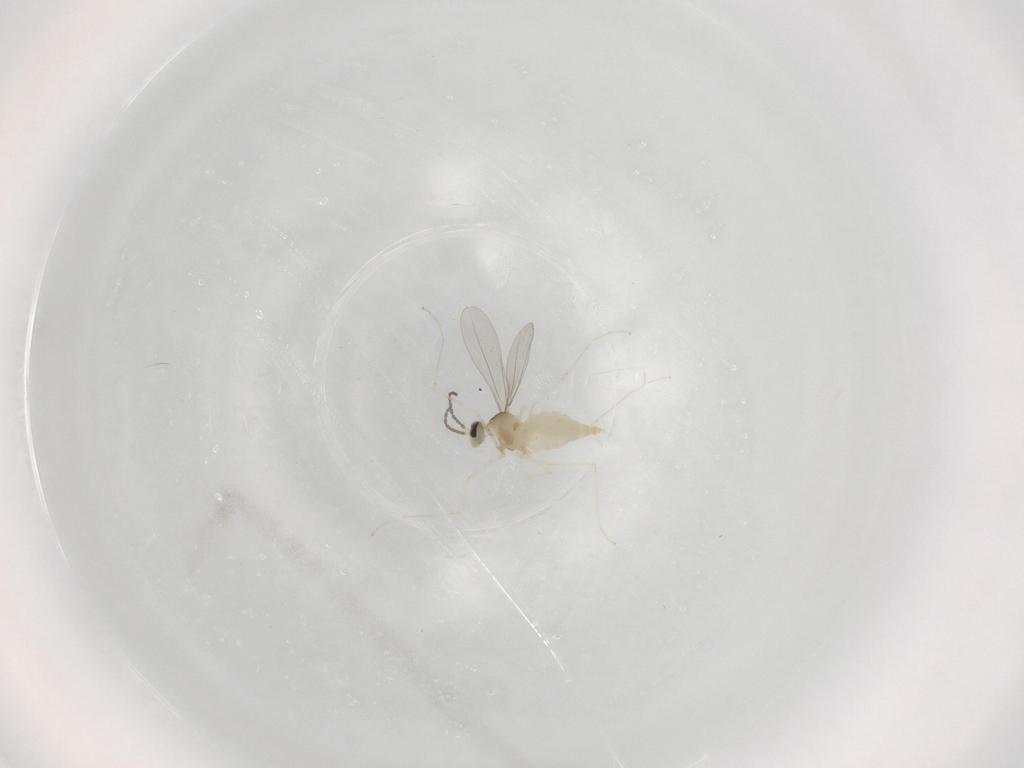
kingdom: Animalia
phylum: Arthropoda
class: Insecta
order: Diptera
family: Cecidomyiidae
